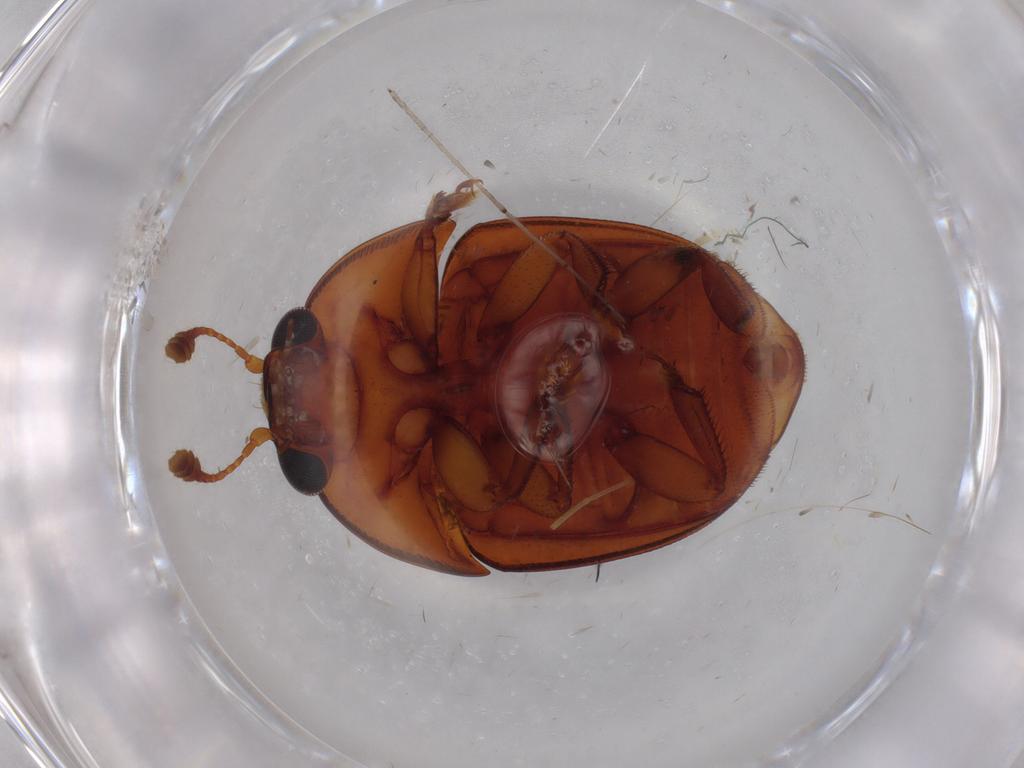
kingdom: Animalia
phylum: Arthropoda
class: Insecta
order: Coleoptera
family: Nitidulidae
